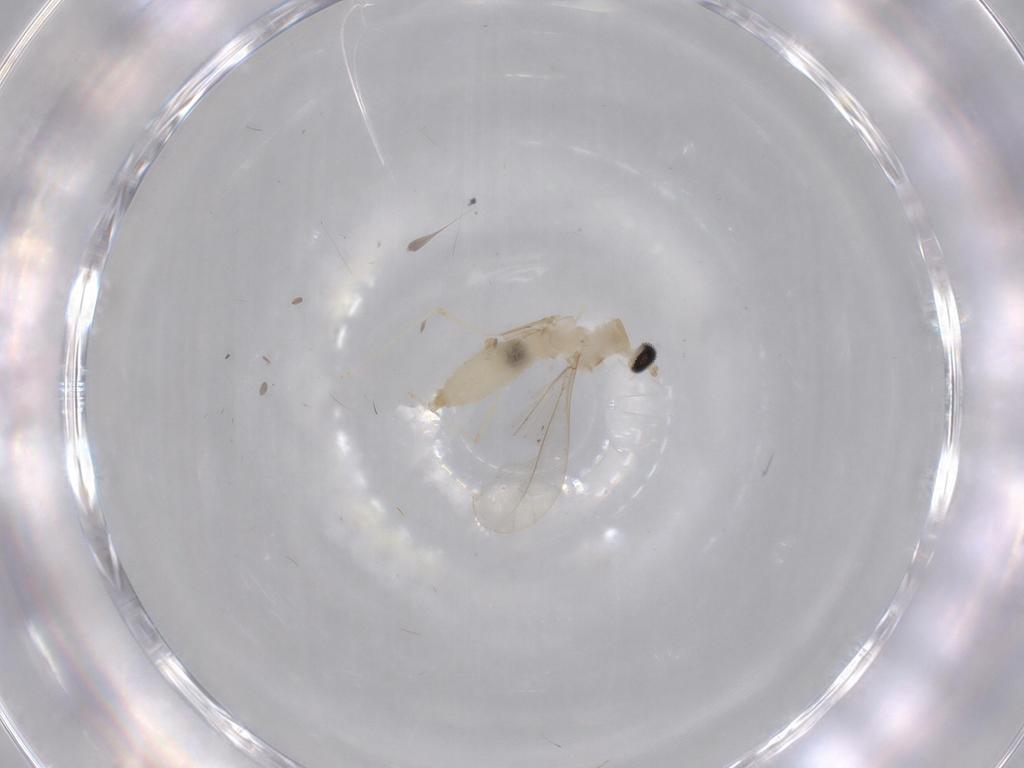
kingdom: Animalia
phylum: Arthropoda
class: Insecta
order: Diptera
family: Cecidomyiidae
